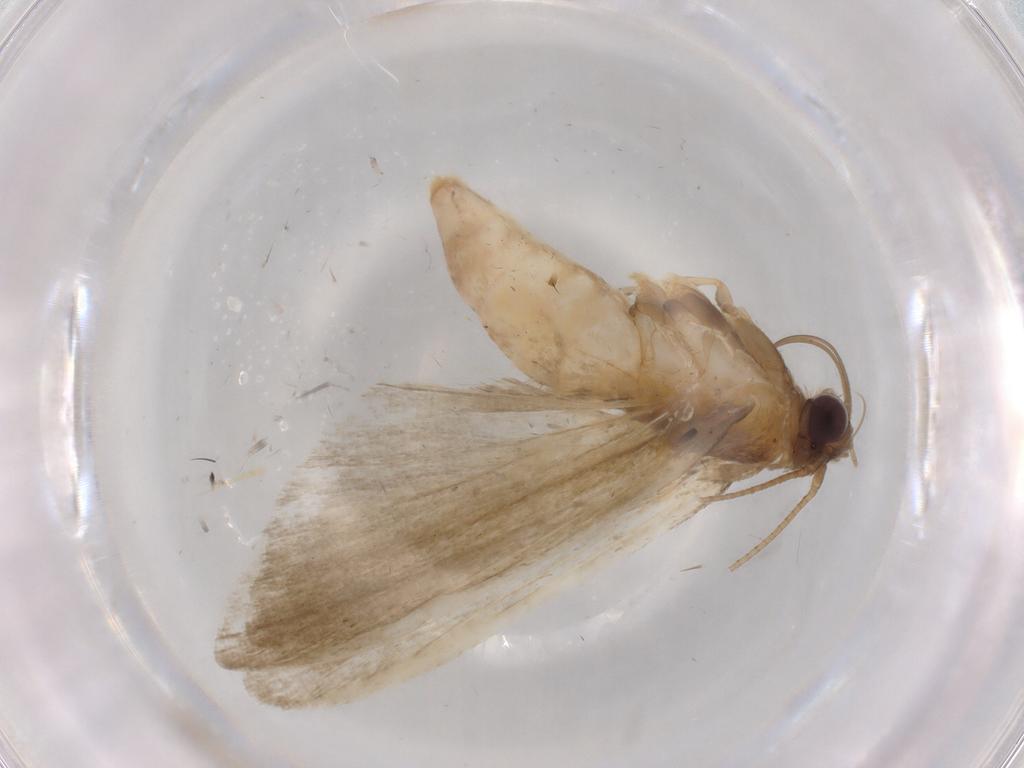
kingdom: Animalia
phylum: Arthropoda
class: Insecta
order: Lepidoptera
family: Noctuidae
